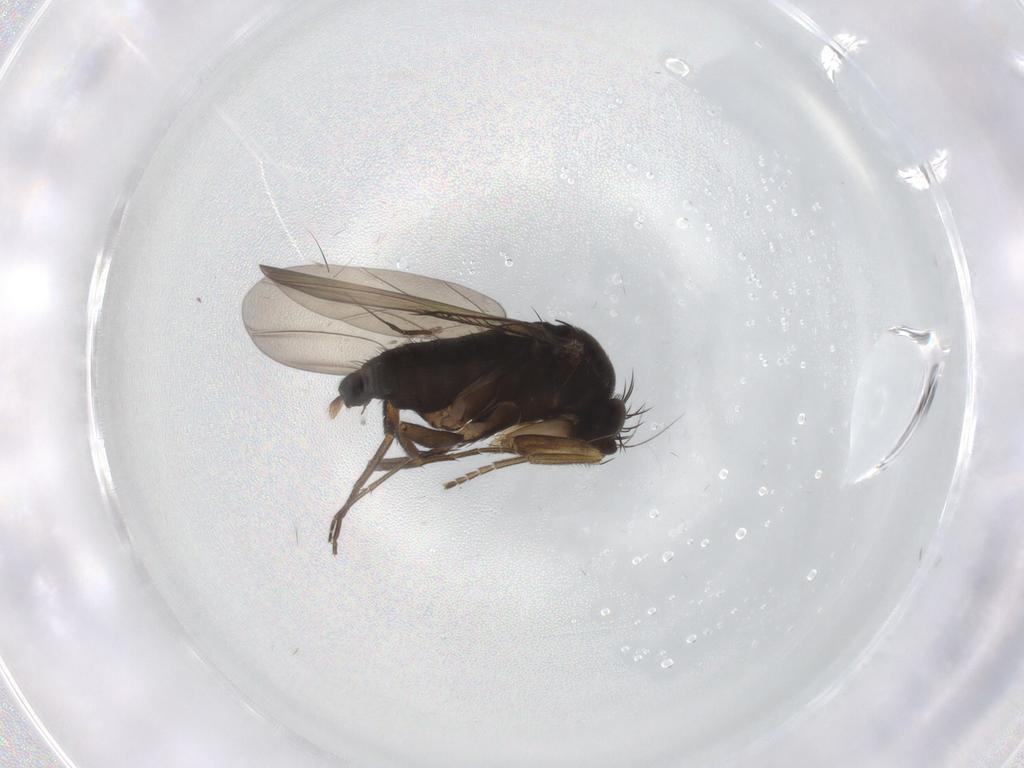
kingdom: Animalia
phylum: Arthropoda
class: Insecta
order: Diptera
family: Phoridae
